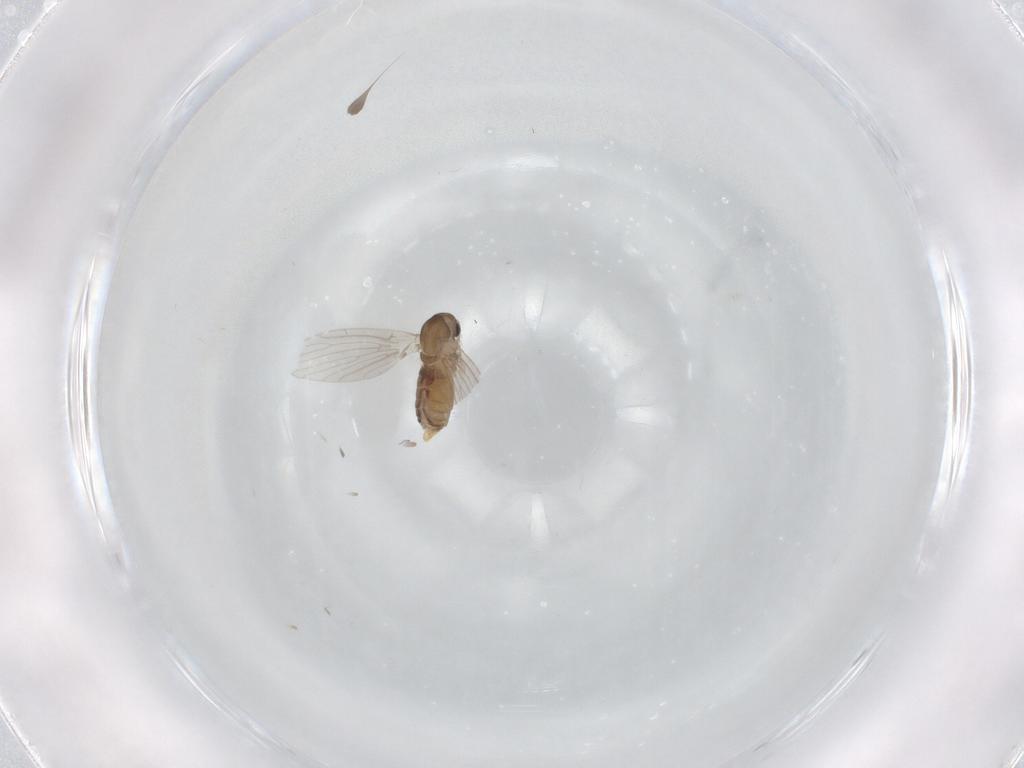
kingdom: Animalia
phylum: Arthropoda
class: Insecta
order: Diptera
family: Psychodidae
